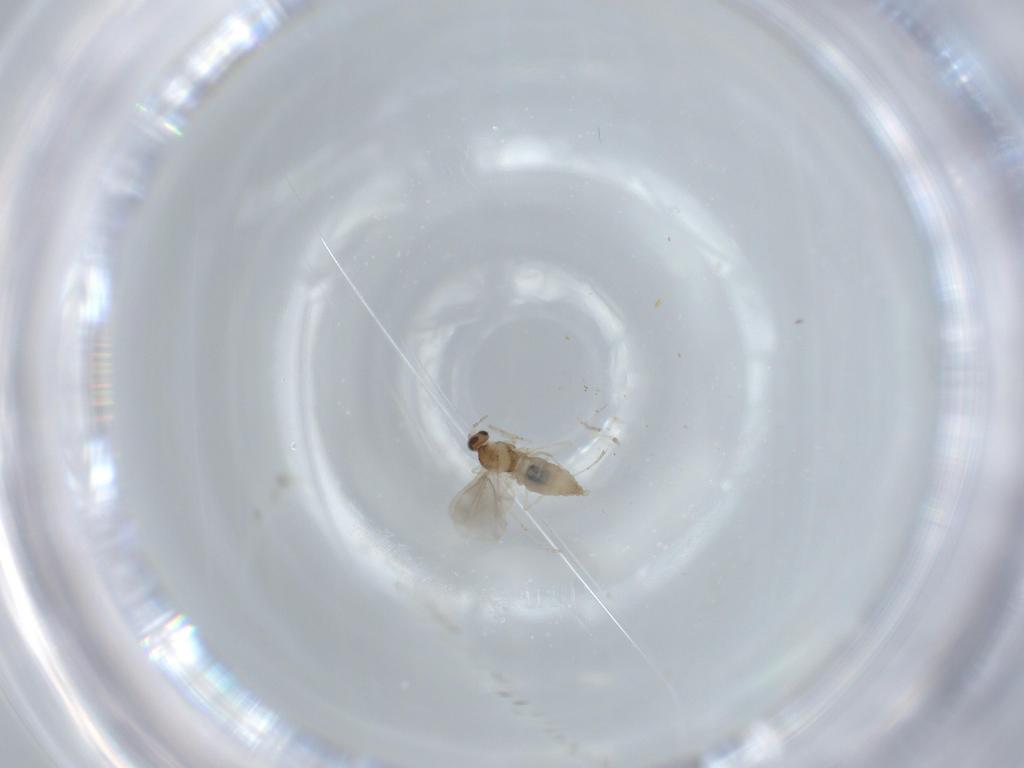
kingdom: Animalia
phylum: Arthropoda
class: Insecta
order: Diptera
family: Cecidomyiidae
